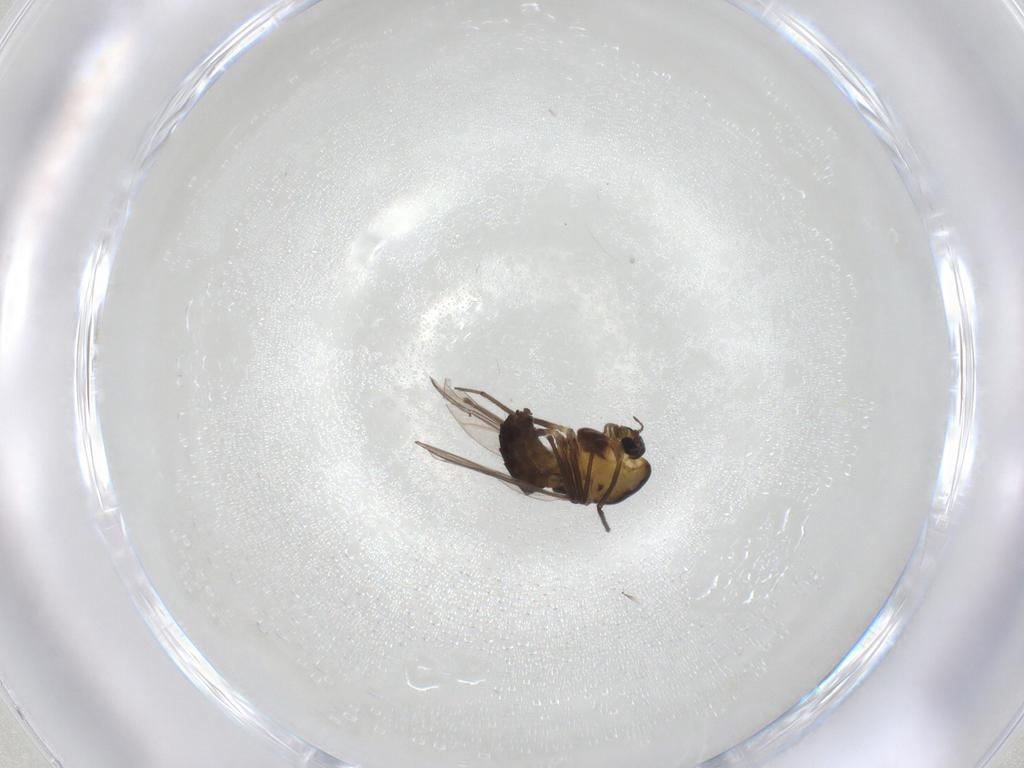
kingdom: Animalia
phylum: Arthropoda
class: Insecta
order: Diptera
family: Chironomidae
